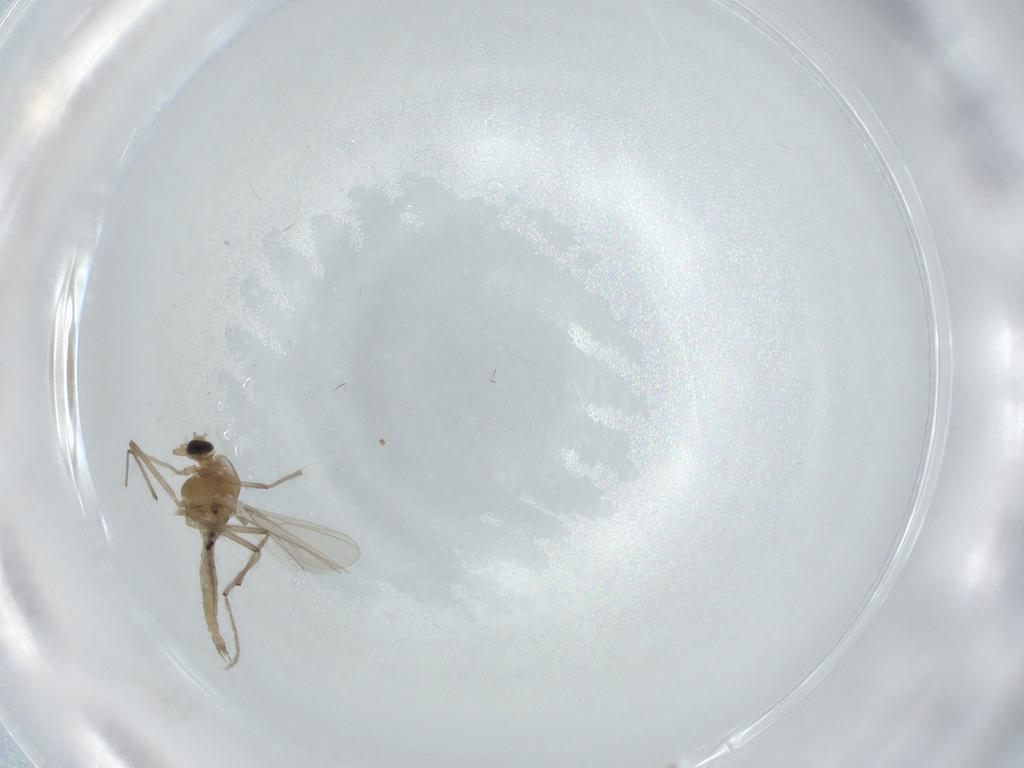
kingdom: Animalia
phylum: Arthropoda
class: Insecta
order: Diptera
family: Chironomidae
